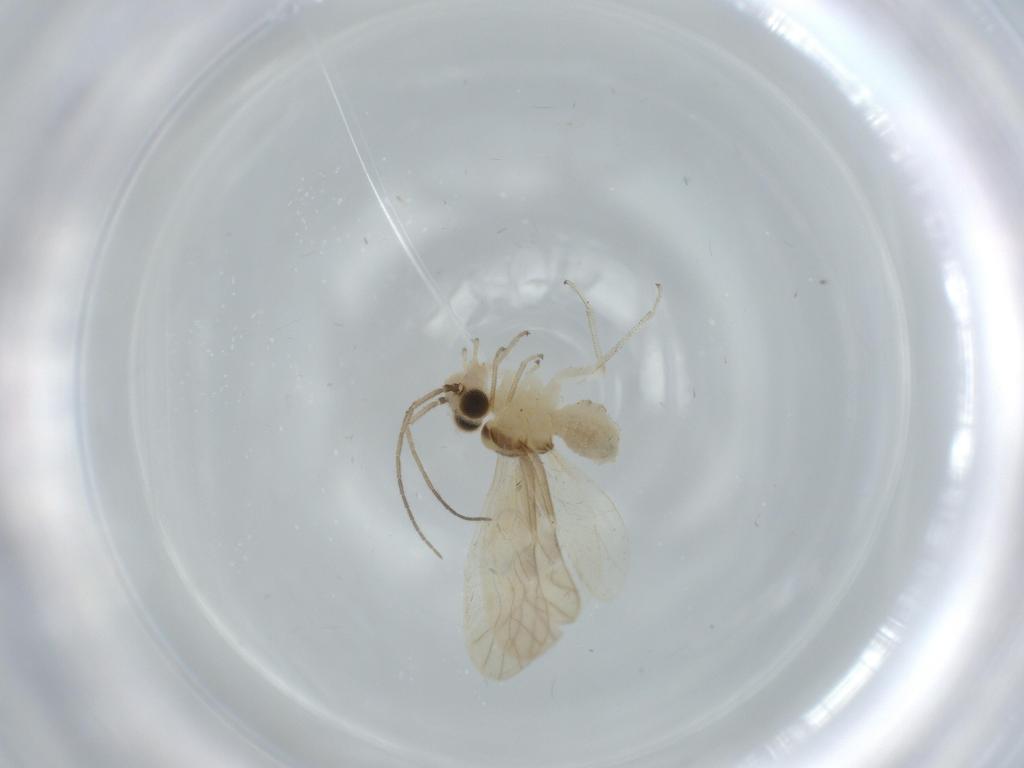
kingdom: Animalia
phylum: Arthropoda
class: Insecta
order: Psocodea
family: Caeciliusidae
